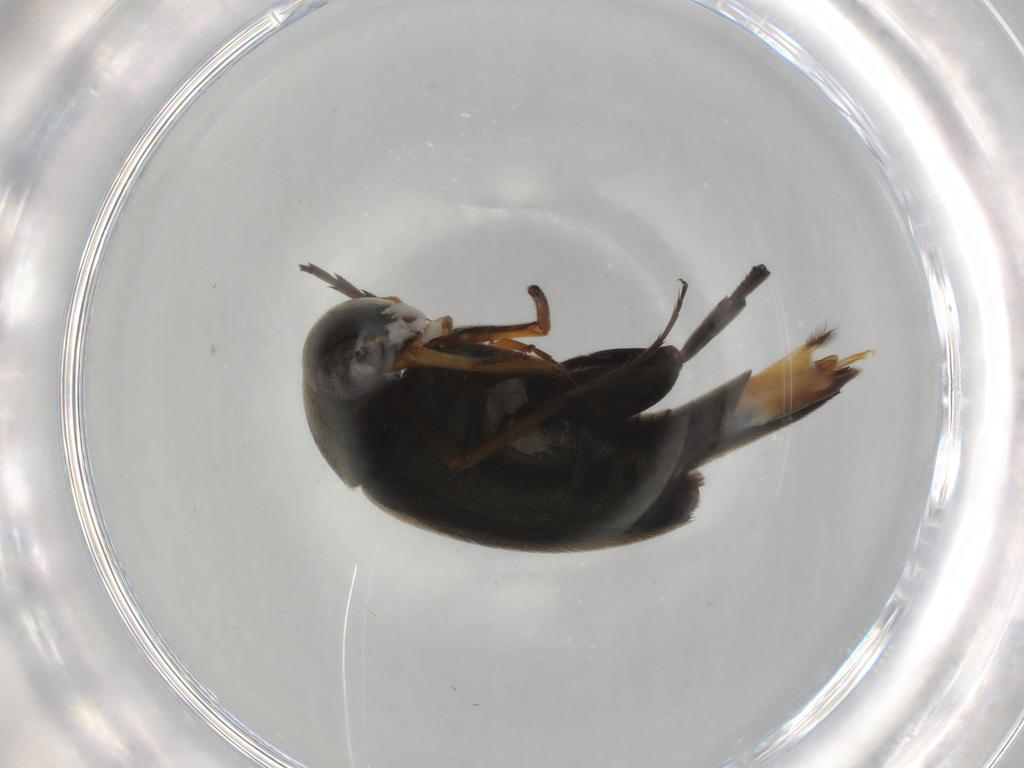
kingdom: Animalia
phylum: Arthropoda
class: Insecta
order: Coleoptera
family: Mordellidae
